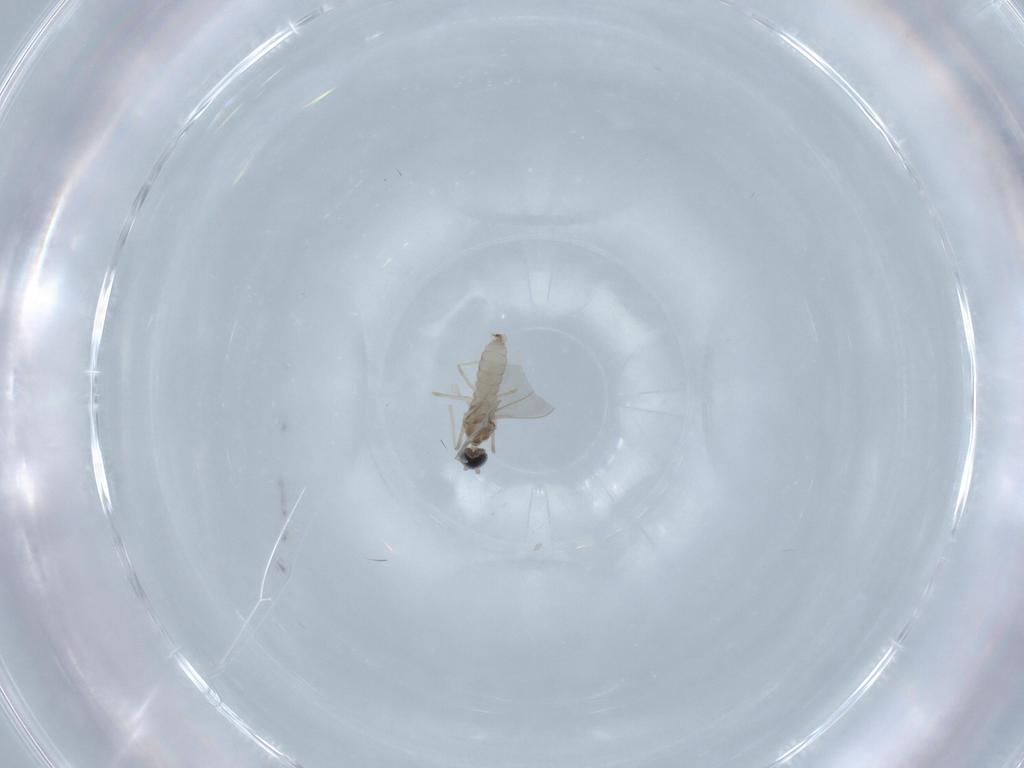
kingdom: Animalia
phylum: Arthropoda
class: Insecta
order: Diptera
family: Cecidomyiidae
